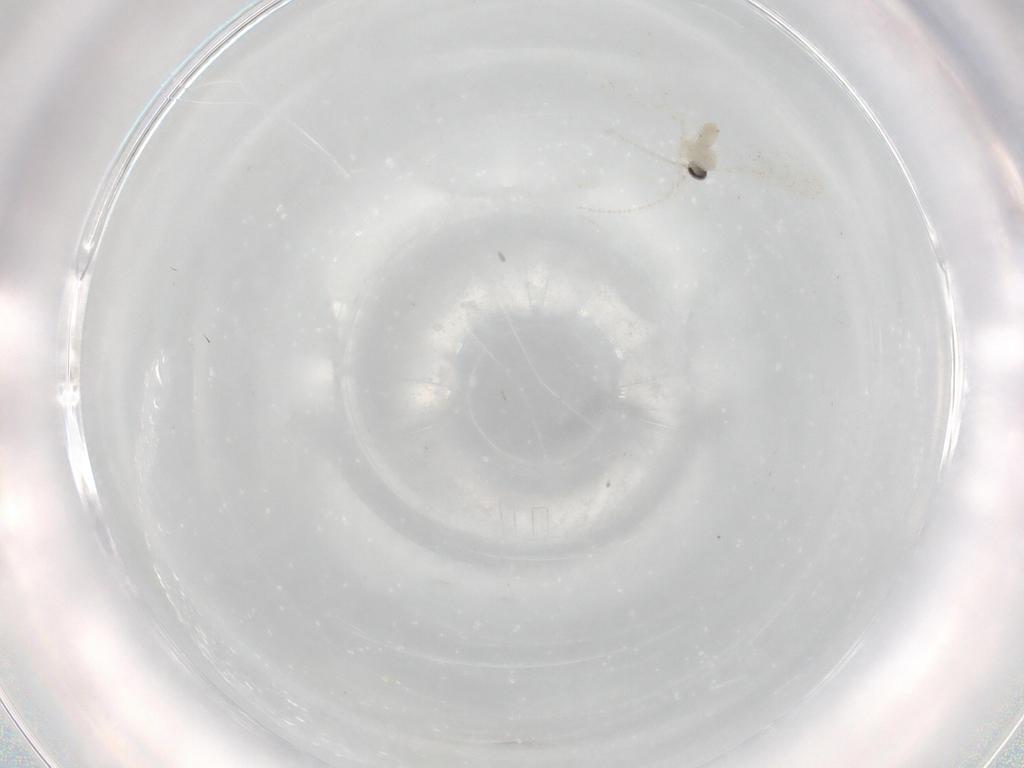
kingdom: Animalia
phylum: Arthropoda
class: Insecta
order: Diptera
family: Cecidomyiidae
